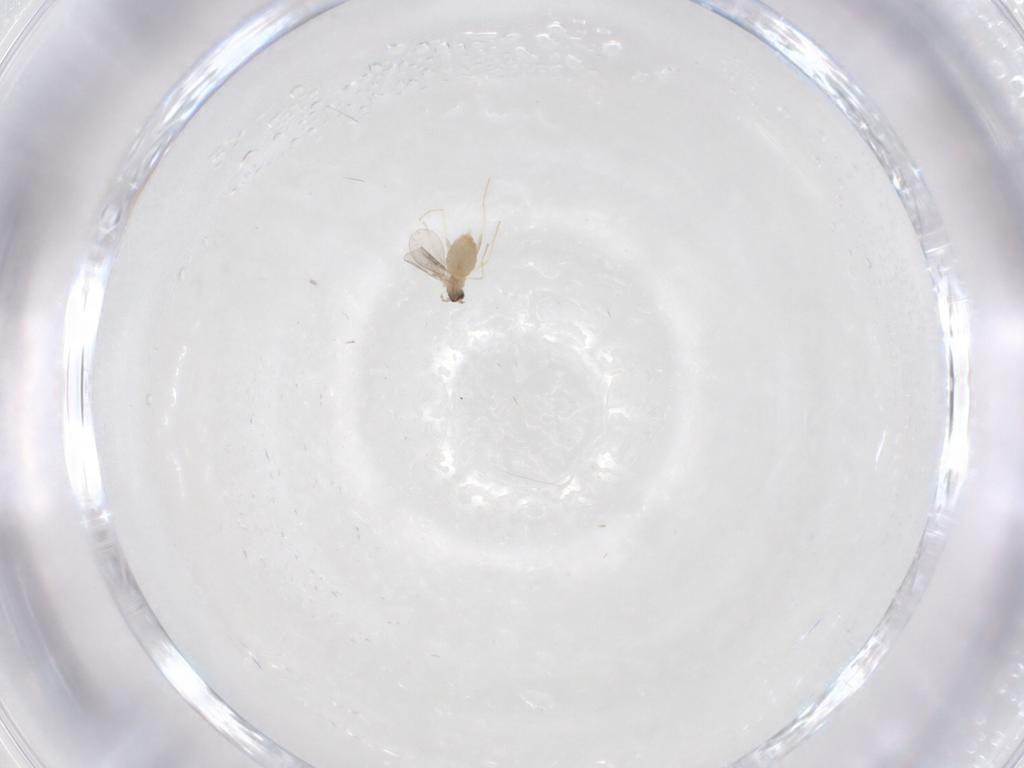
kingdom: Animalia
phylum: Arthropoda
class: Insecta
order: Diptera
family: Cecidomyiidae
